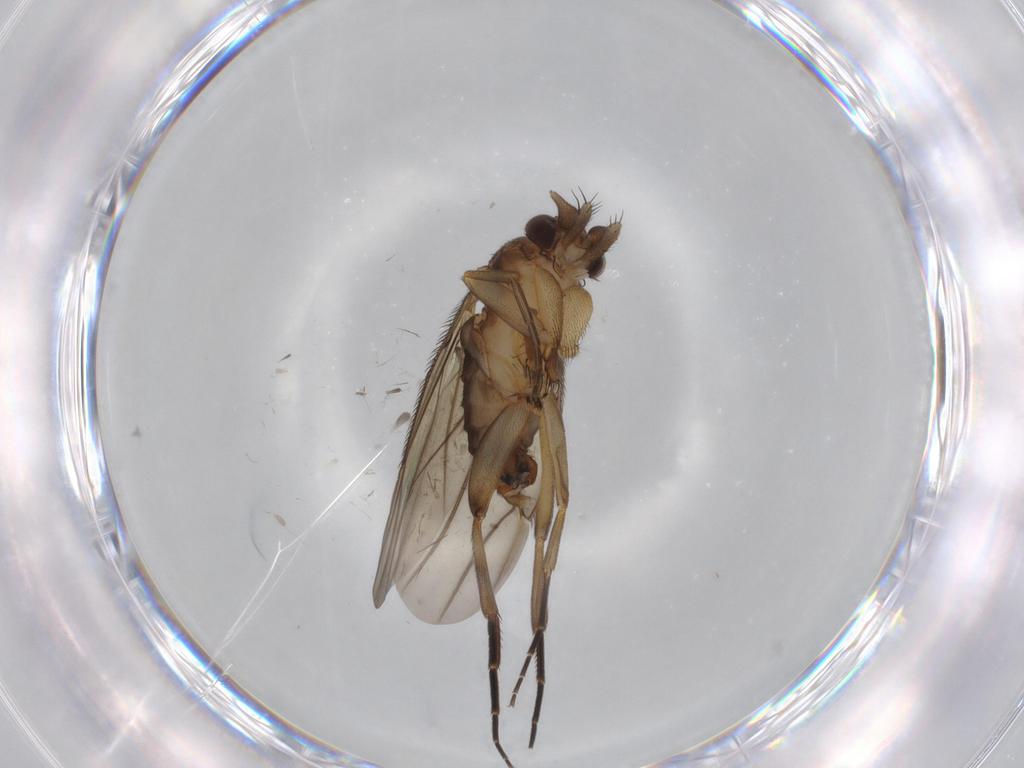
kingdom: Animalia
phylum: Arthropoda
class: Insecta
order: Diptera
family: Phoridae
